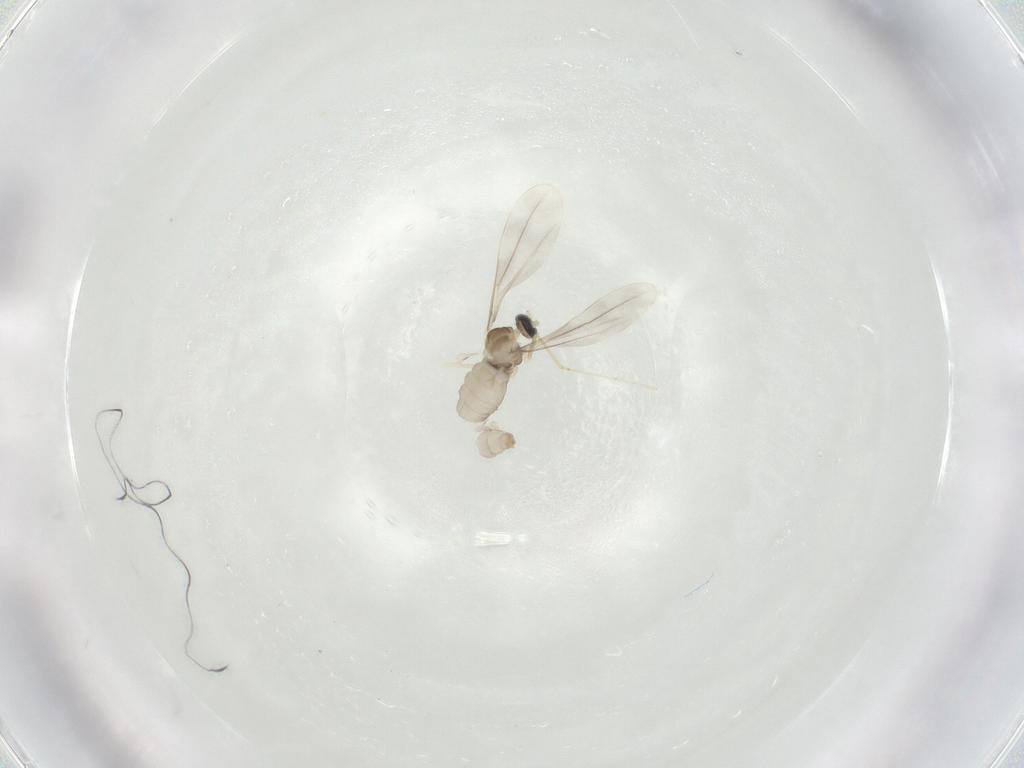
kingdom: Animalia
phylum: Arthropoda
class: Insecta
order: Diptera
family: Cecidomyiidae
